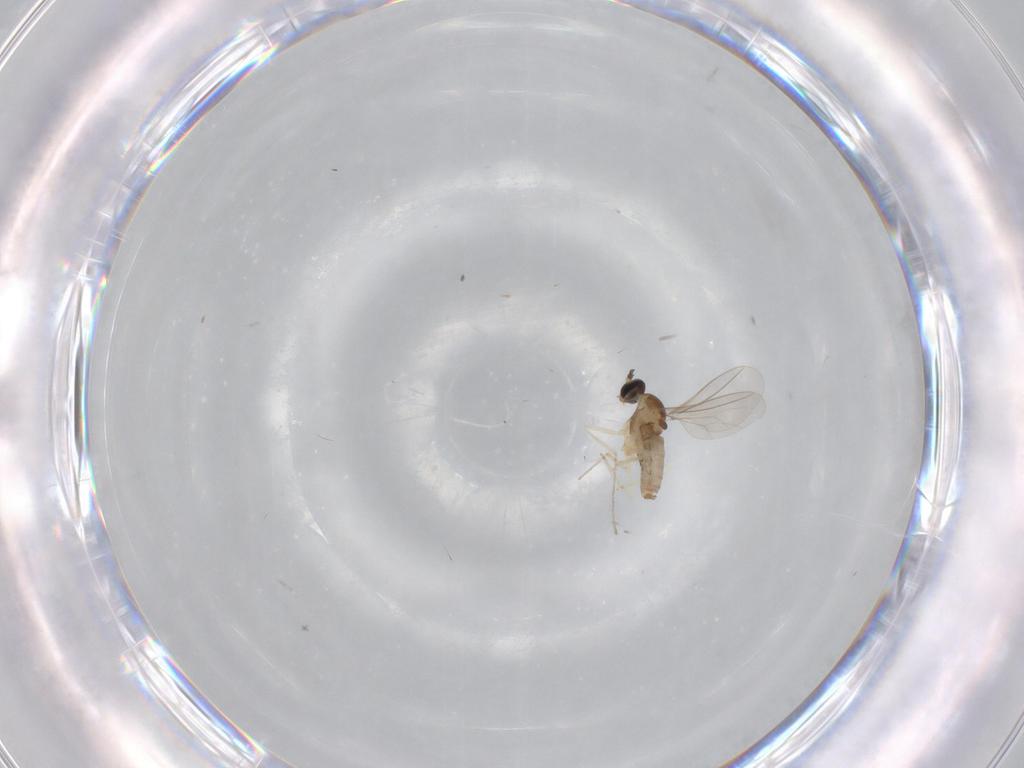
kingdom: Animalia
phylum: Arthropoda
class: Insecta
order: Diptera
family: Cecidomyiidae
